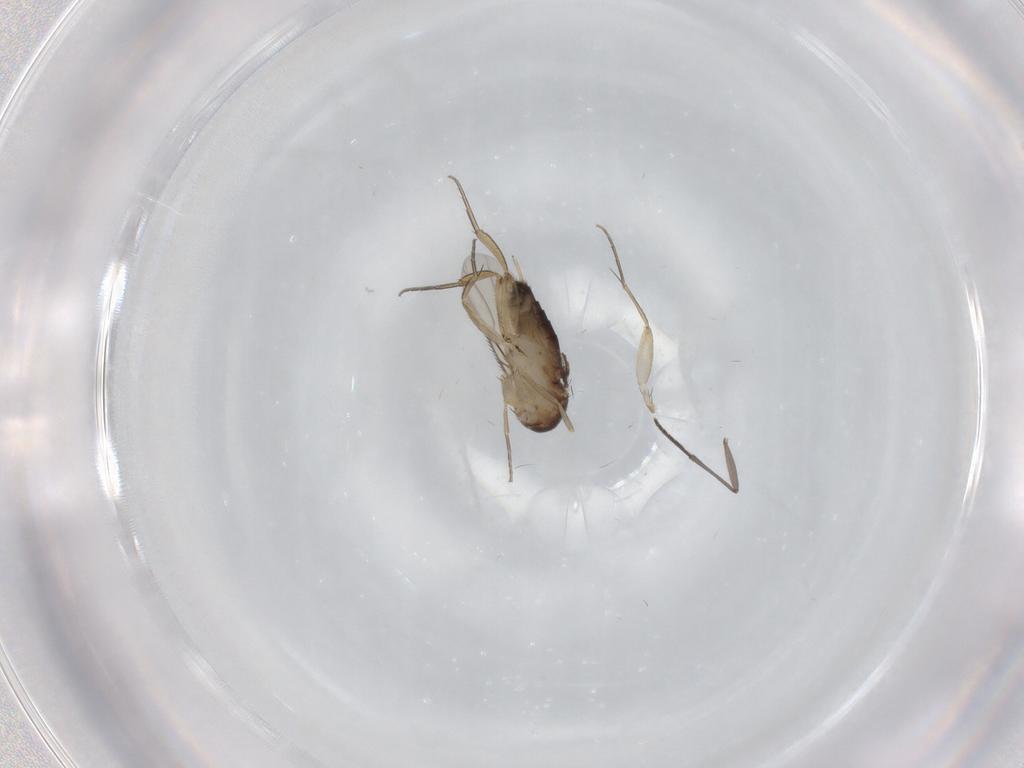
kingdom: Animalia
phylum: Arthropoda
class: Insecta
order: Diptera
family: Phoridae
